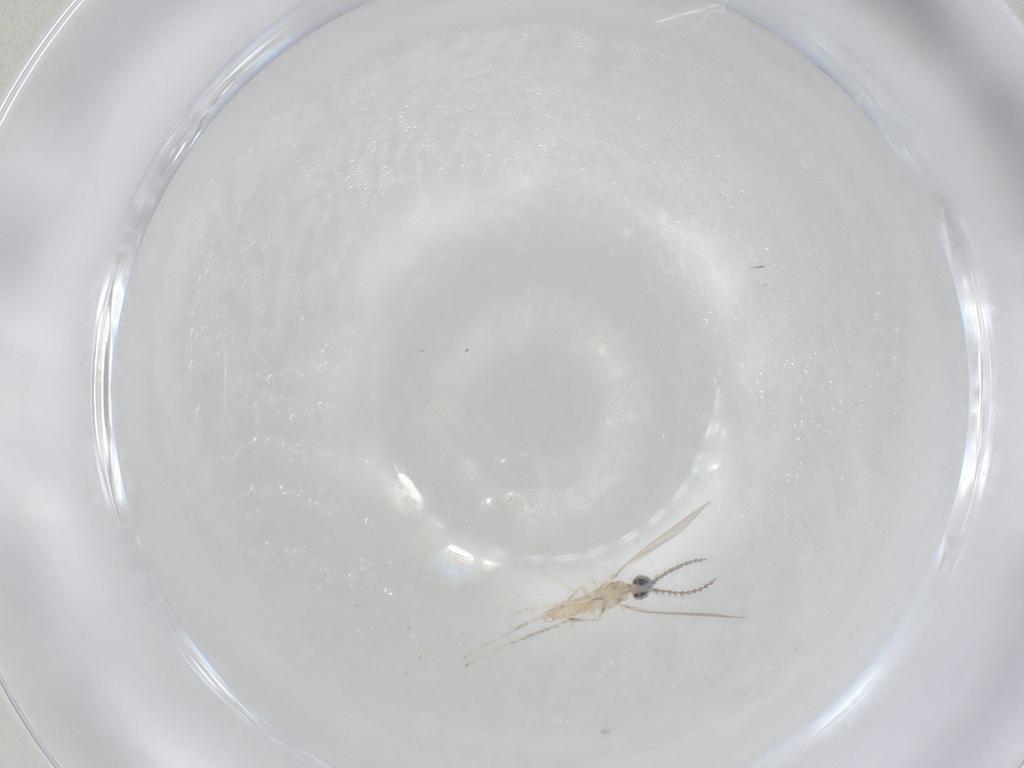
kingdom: Animalia
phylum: Arthropoda
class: Insecta
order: Diptera
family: Cecidomyiidae
